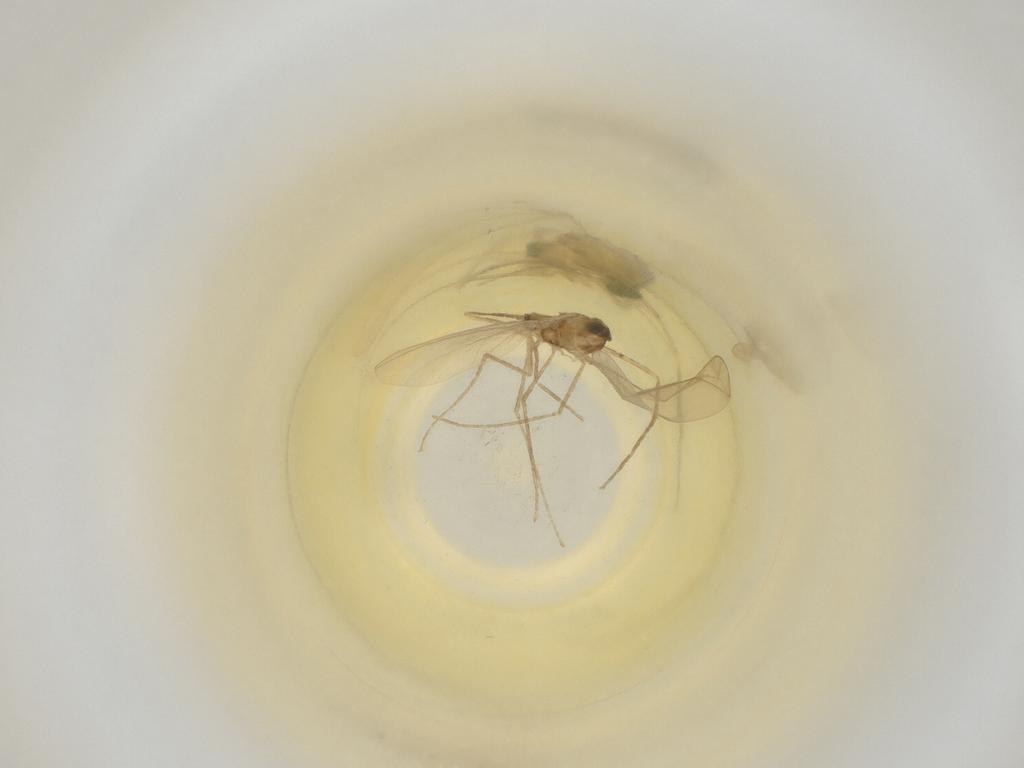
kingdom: Animalia
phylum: Arthropoda
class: Insecta
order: Diptera
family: Cecidomyiidae
